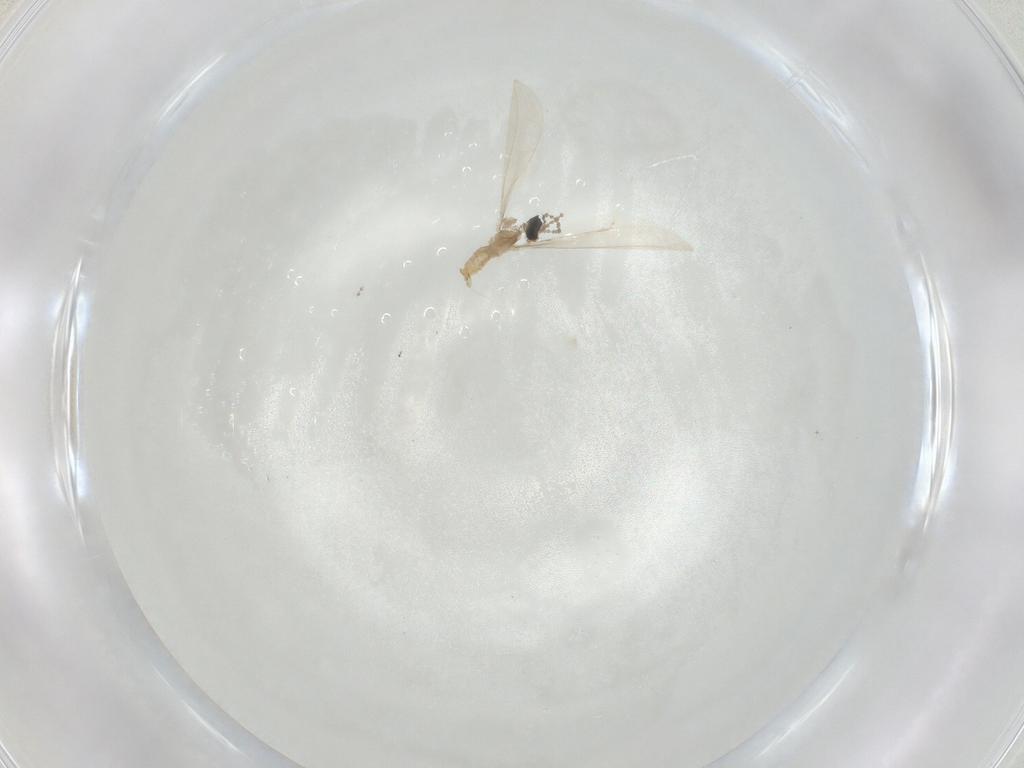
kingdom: Animalia
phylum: Arthropoda
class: Insecta
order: Diptera
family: Cecidomyiidae
